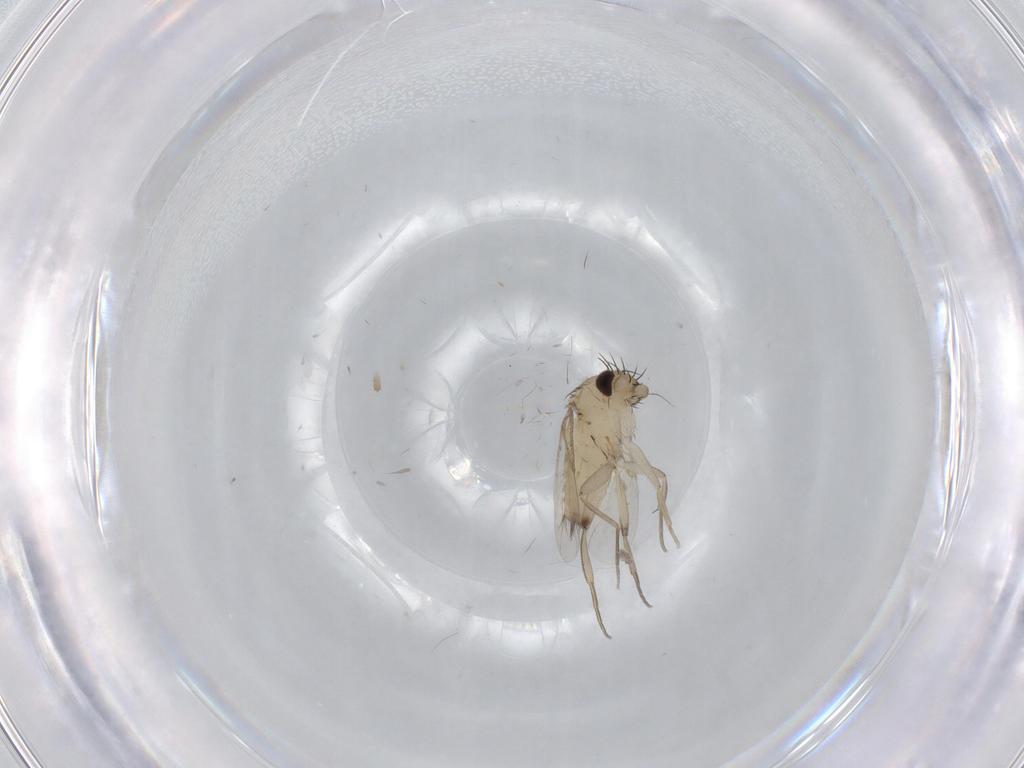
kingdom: Animalia
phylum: Arthropoda
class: Insecta
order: Diptera
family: Phoridae
